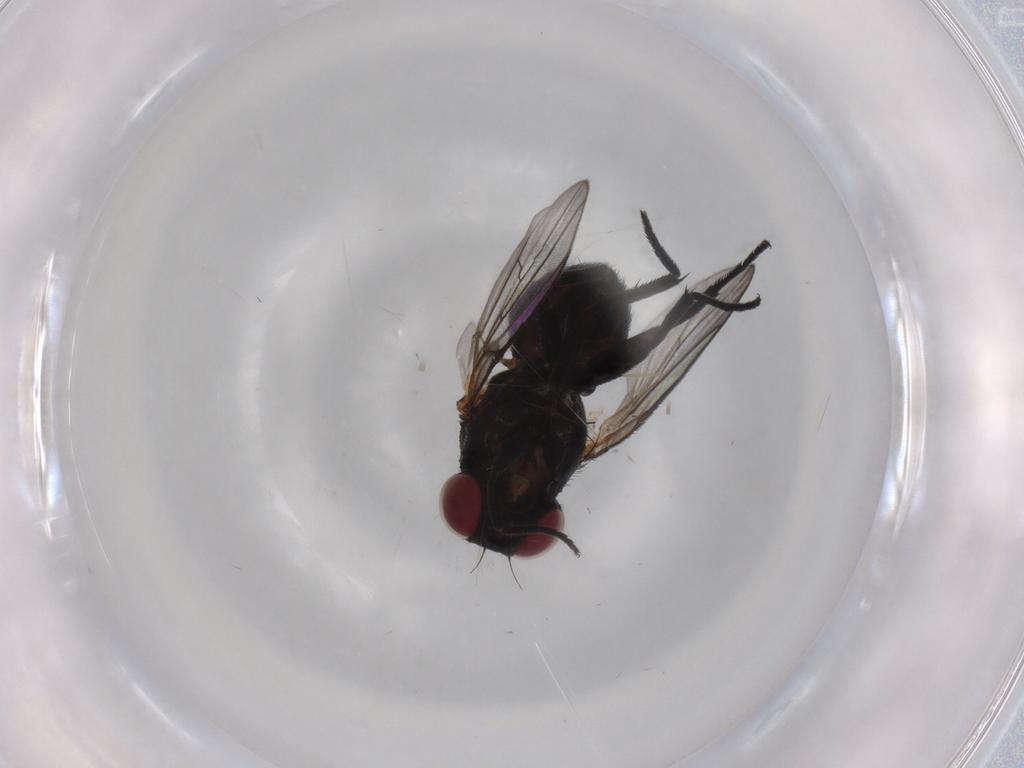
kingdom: Animalia
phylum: Arthropoda
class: Insecta
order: Diptera
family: Agromyzidae
